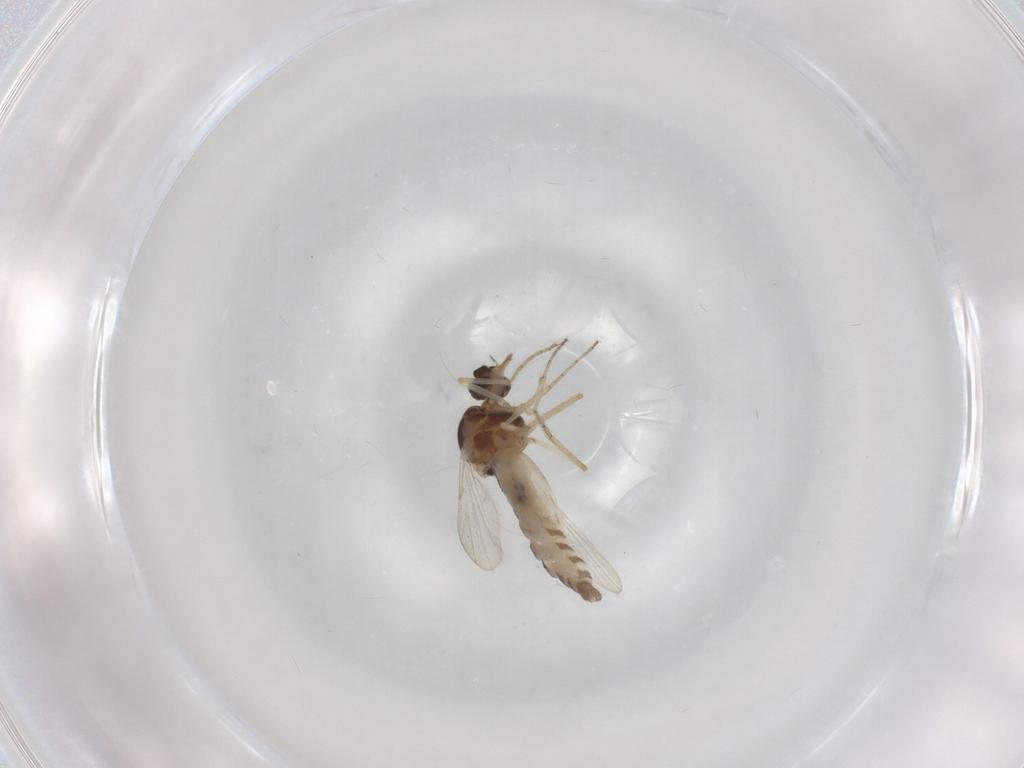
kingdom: Animalia
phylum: Arthropoda
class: Insecta
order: Diptera
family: Ceratopogonidae
